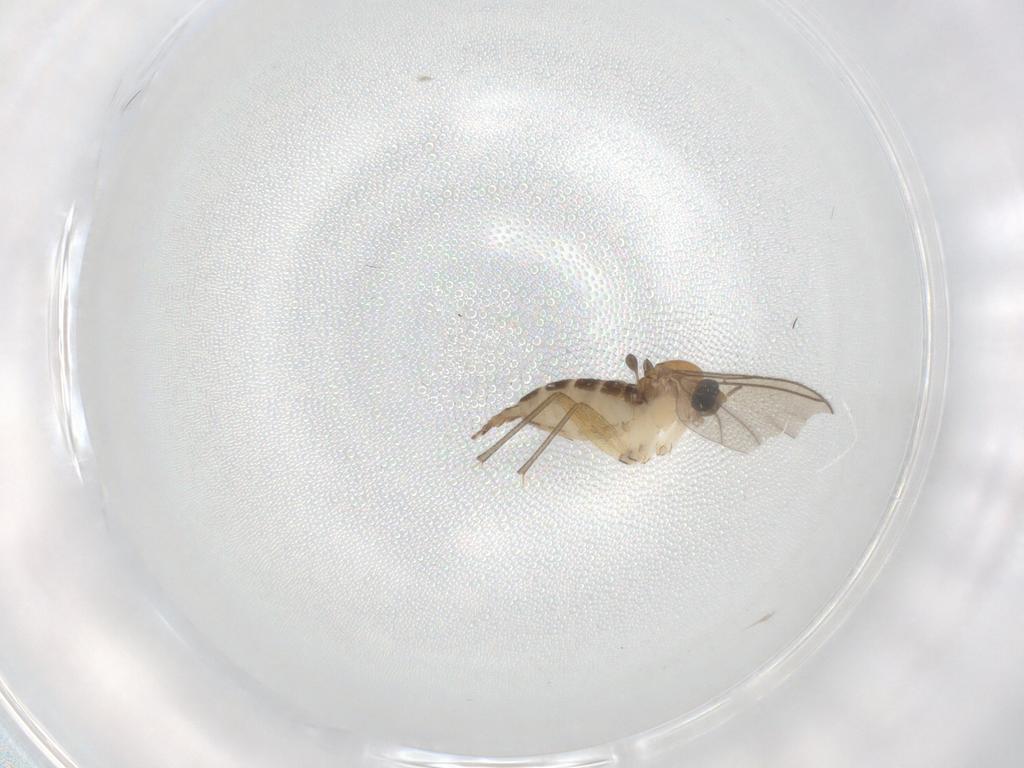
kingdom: Animalia
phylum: Arthropoda
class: Insecta
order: Diptera
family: Sciaridae
